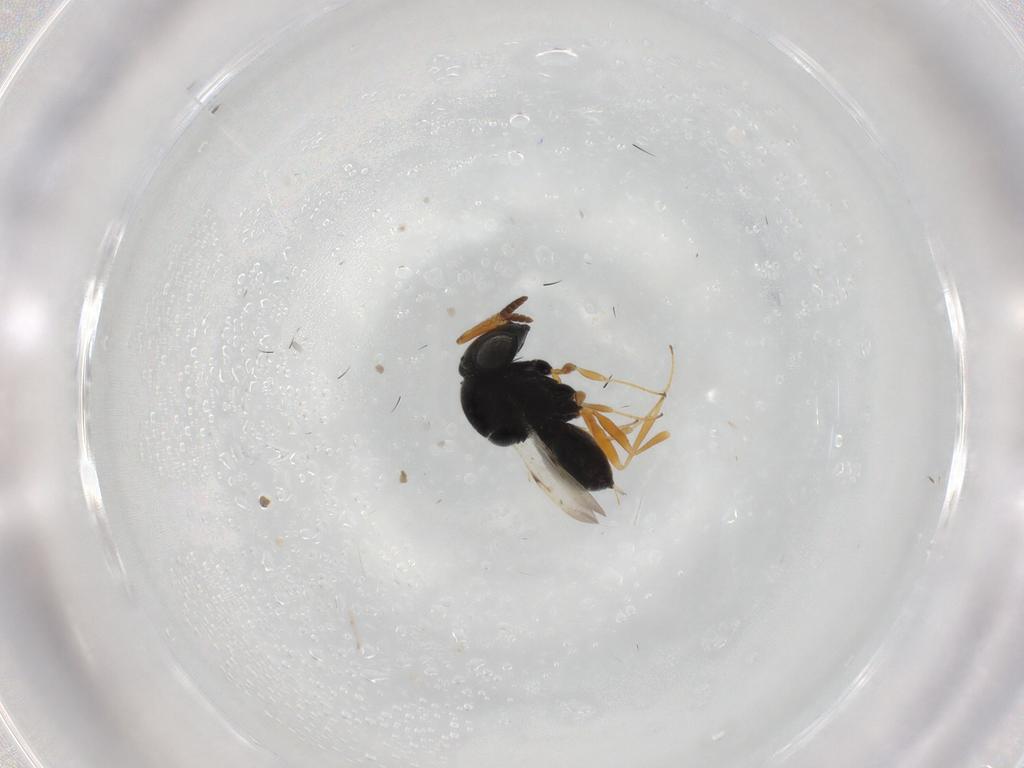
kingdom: Animalia
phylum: Arthropoda
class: Insecta
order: Hymenoptera
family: Scelionidae
